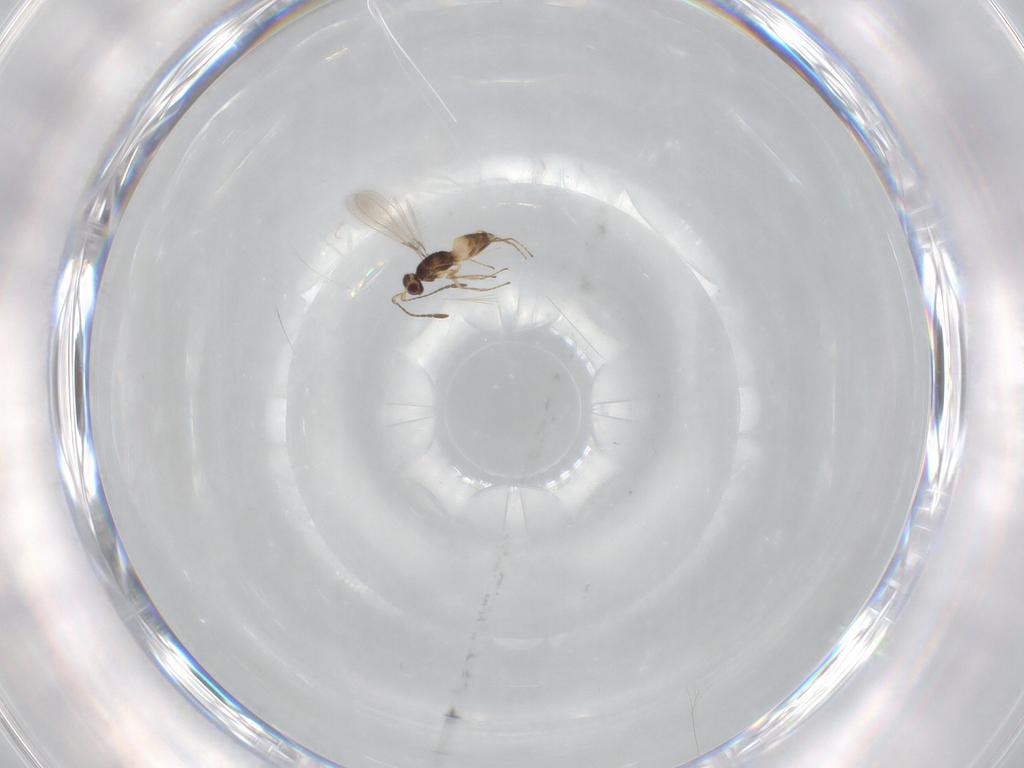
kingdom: Animalia
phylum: Arthropoda
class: Insecta
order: Hymenoptera
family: Mymaridae
